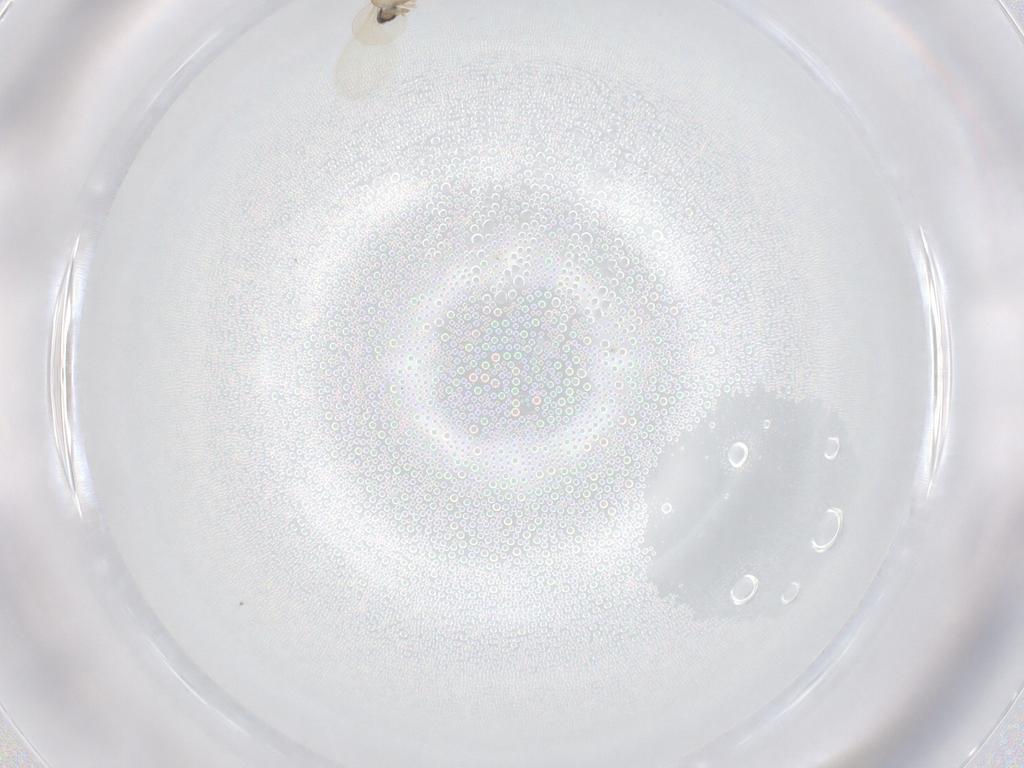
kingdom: Animalia
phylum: Arthropoda
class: Insecta
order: Diptera
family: Cecidomyiidae
